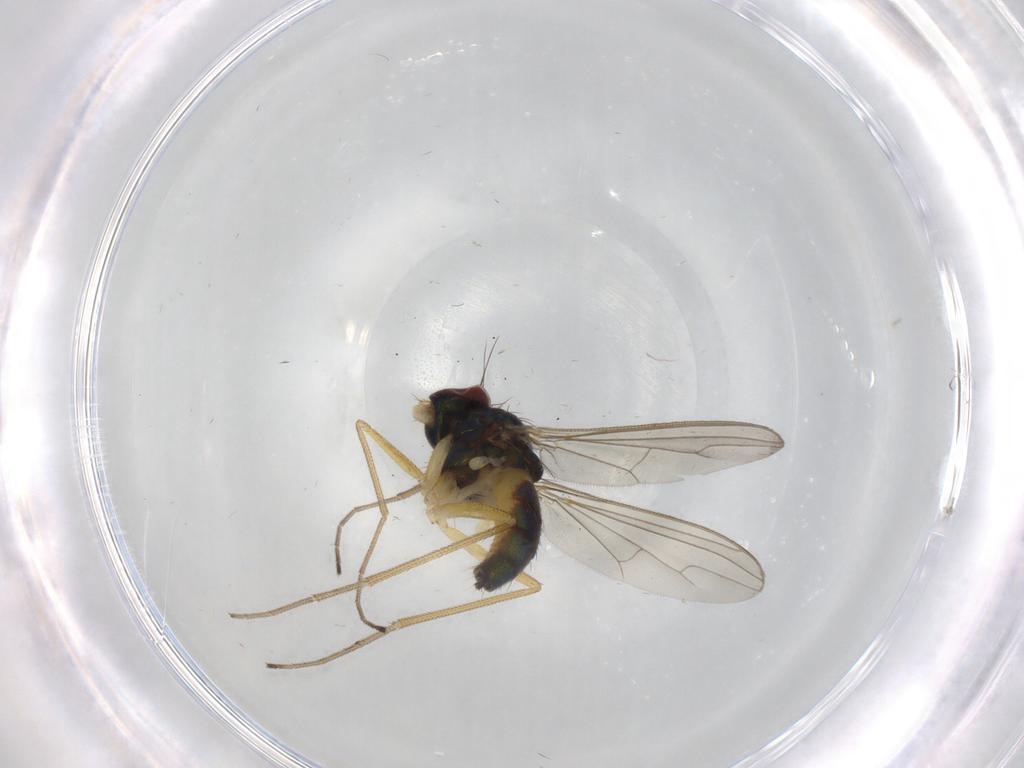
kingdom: Animalia
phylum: Arthropoda
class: Insecta
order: Diptera
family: Sciaridae
